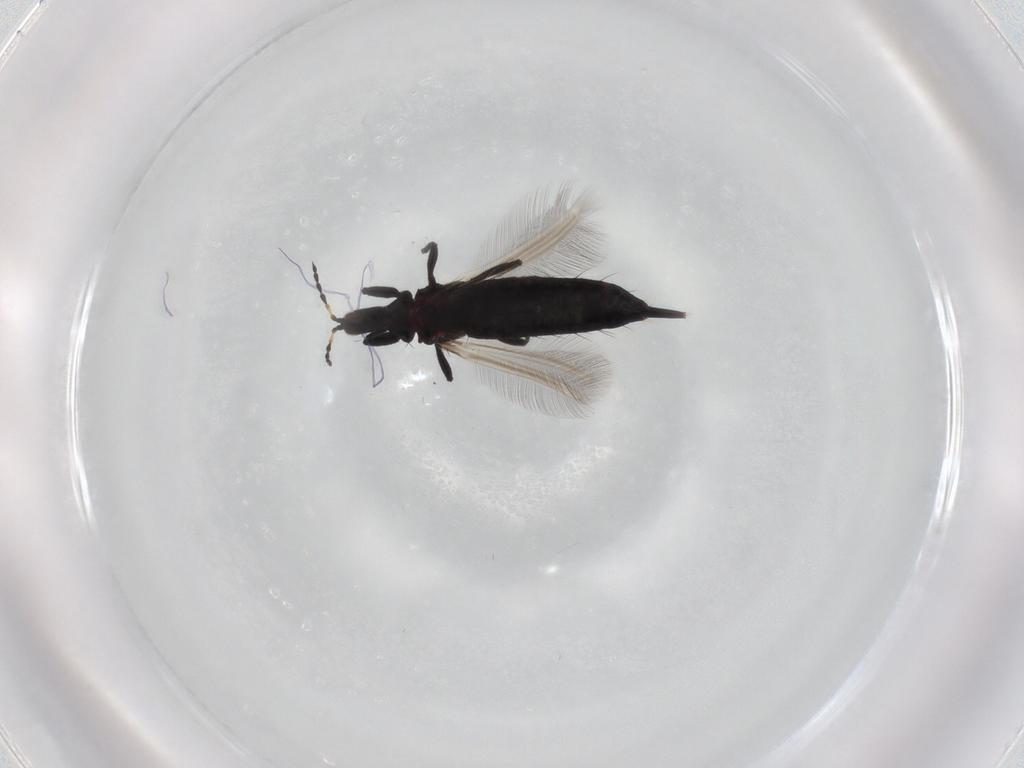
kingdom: Animalia
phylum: Arthropoda
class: Insecta
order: Thysanoptera
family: Phlaeothripidae
